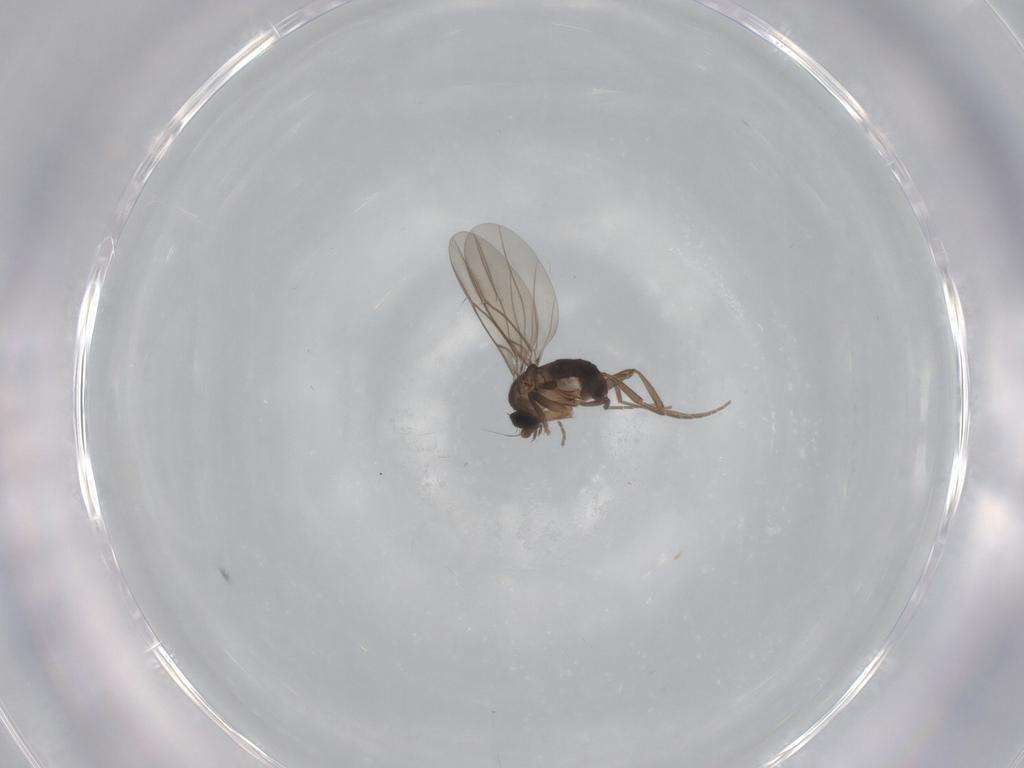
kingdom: Animalia
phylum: Arthropoda
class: Insecta
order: Diptera
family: Phoridae
